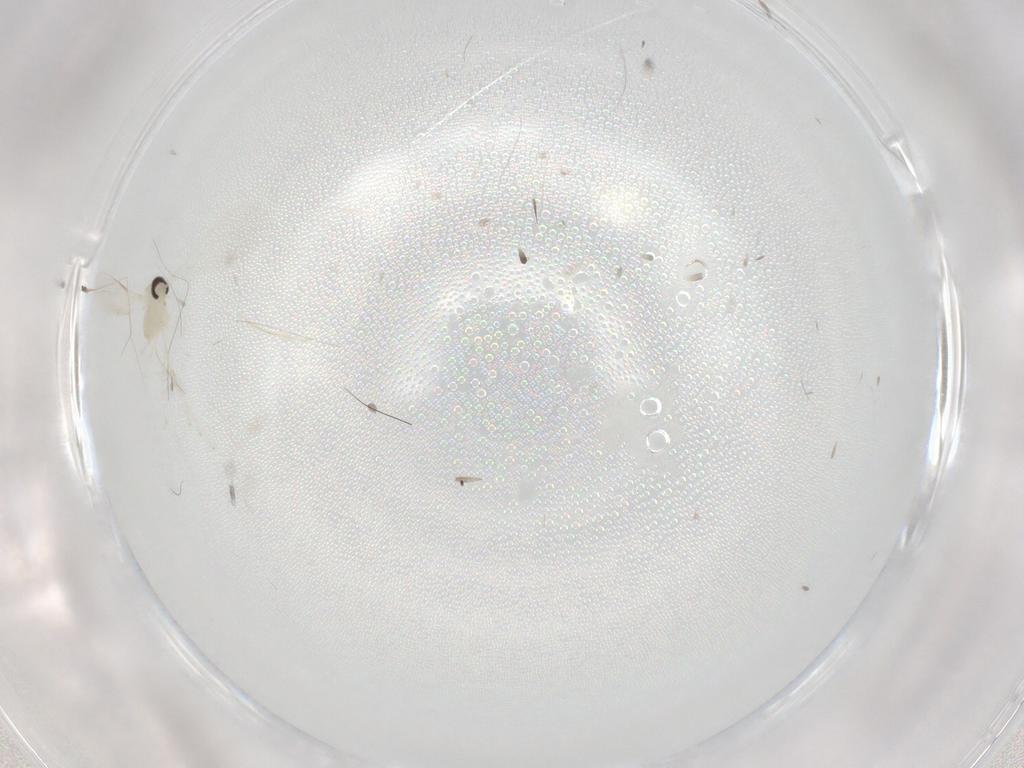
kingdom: Animalia
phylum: Arthropoda
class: Insecta
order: Diptera
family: Chironomidae
